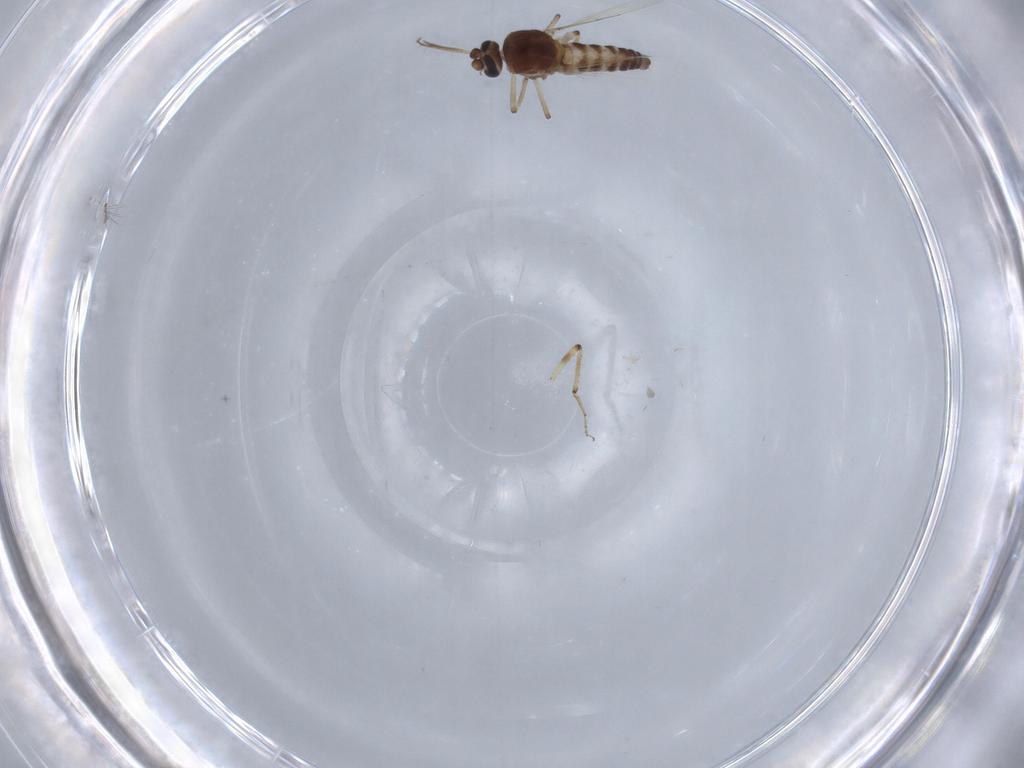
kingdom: Animalia
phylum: Arthropoda
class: Insecta
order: Diptera
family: Ceratopogonidae
